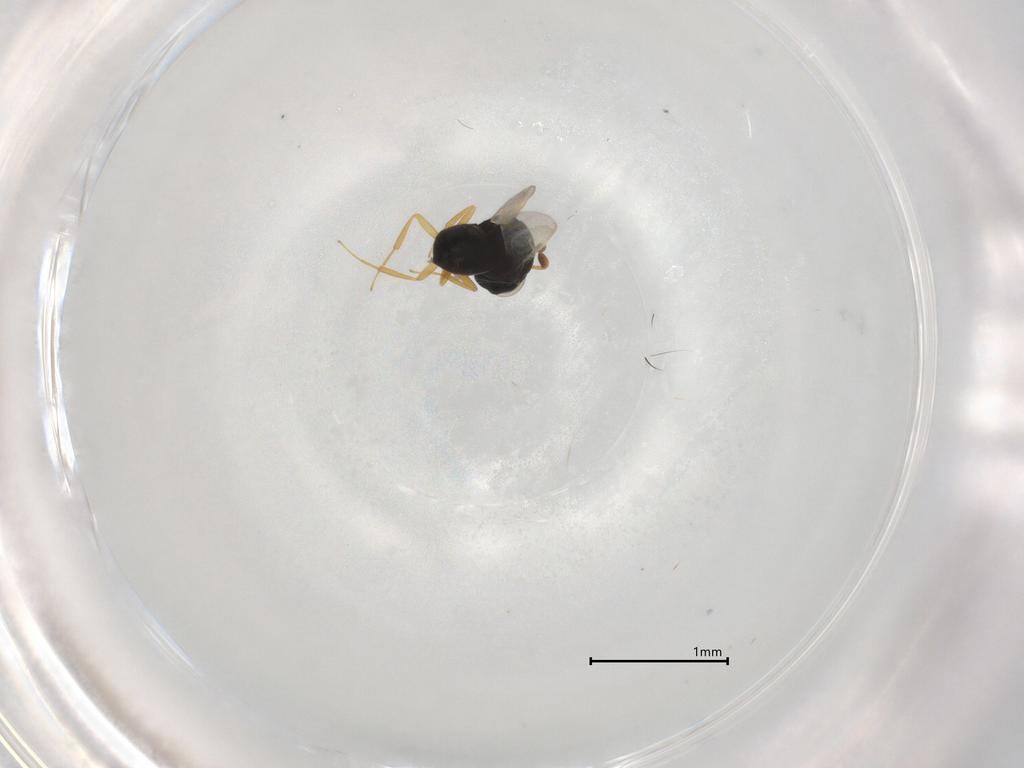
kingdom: Animalia
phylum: Arthropoda
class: Insecta
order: Hymenoptera
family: Scelionidae
